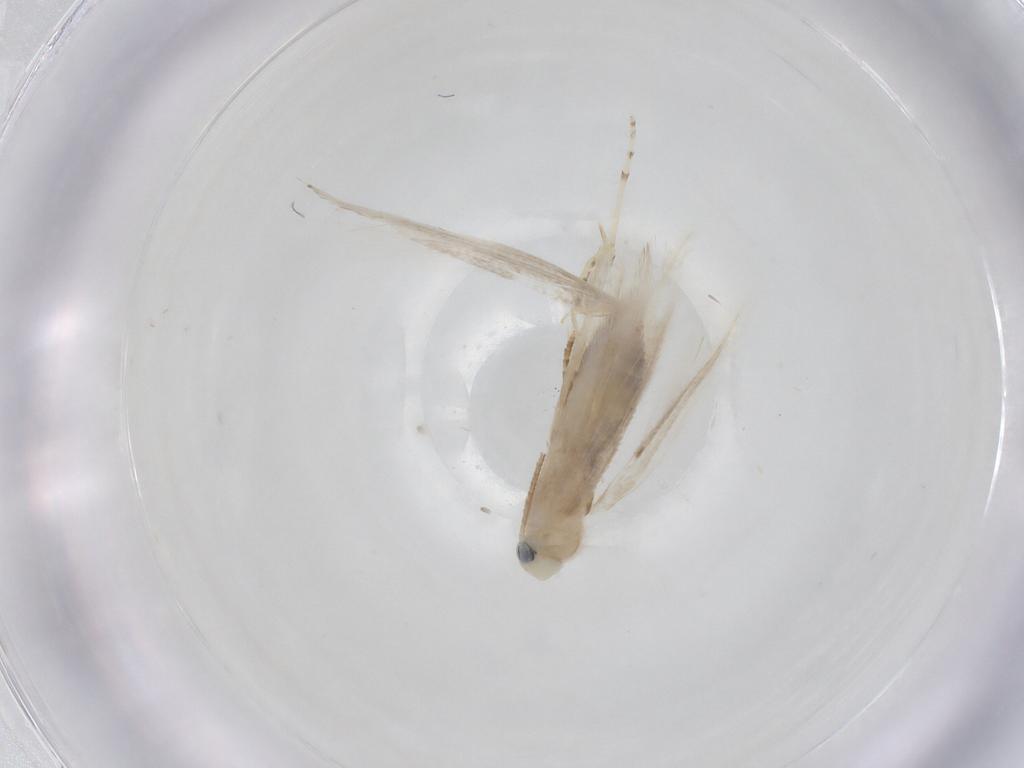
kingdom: Animalia
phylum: Arthropoda
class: Insecta
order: Lepidoptera
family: Lyonetiidae
